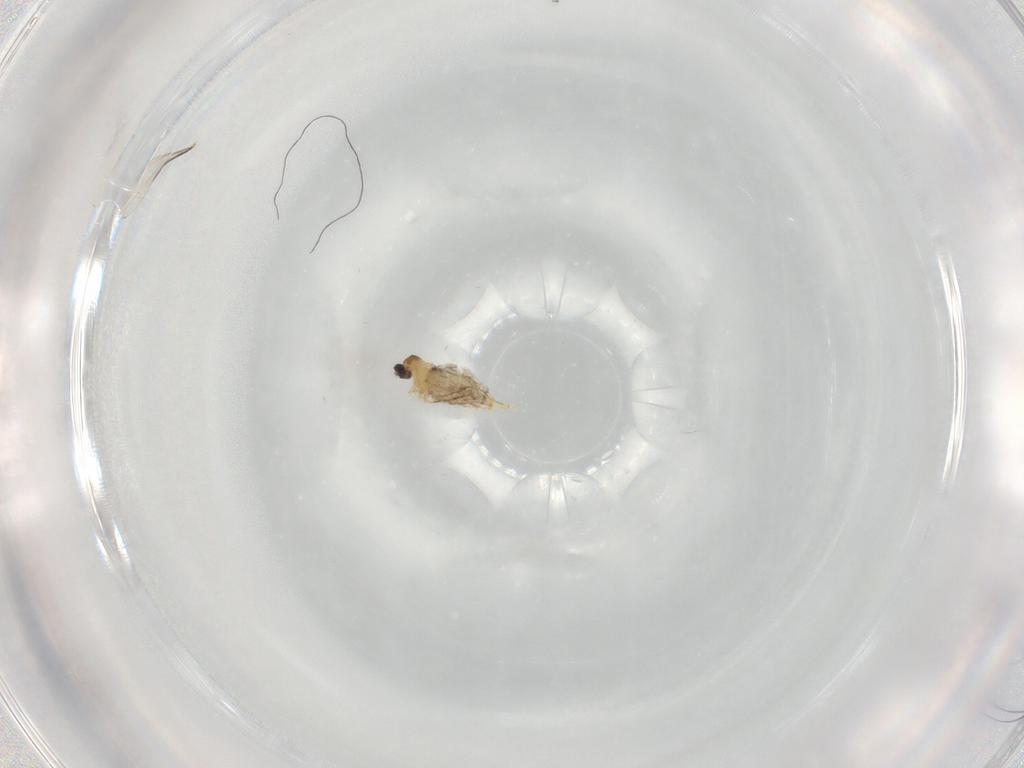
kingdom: Animalia
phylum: Arthropoda
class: Insecta
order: Diptera
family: Tabanidae
